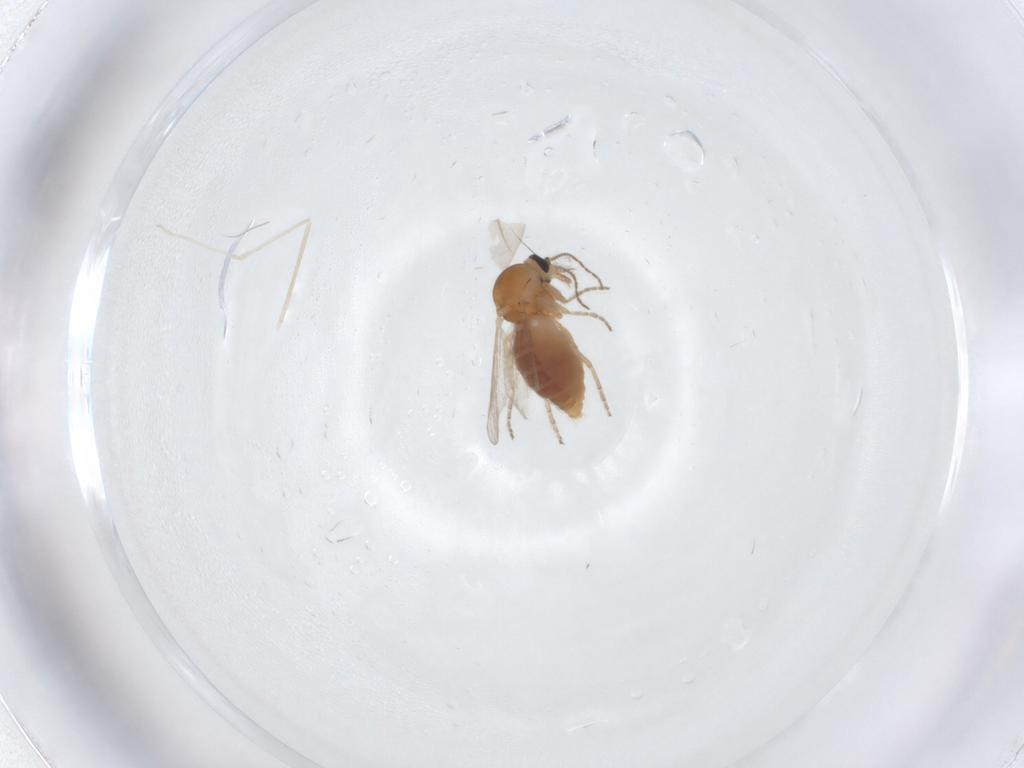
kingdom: Animalia
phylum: Arthropoda
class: Insecta
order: Diptera
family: Ceratopogonidae
